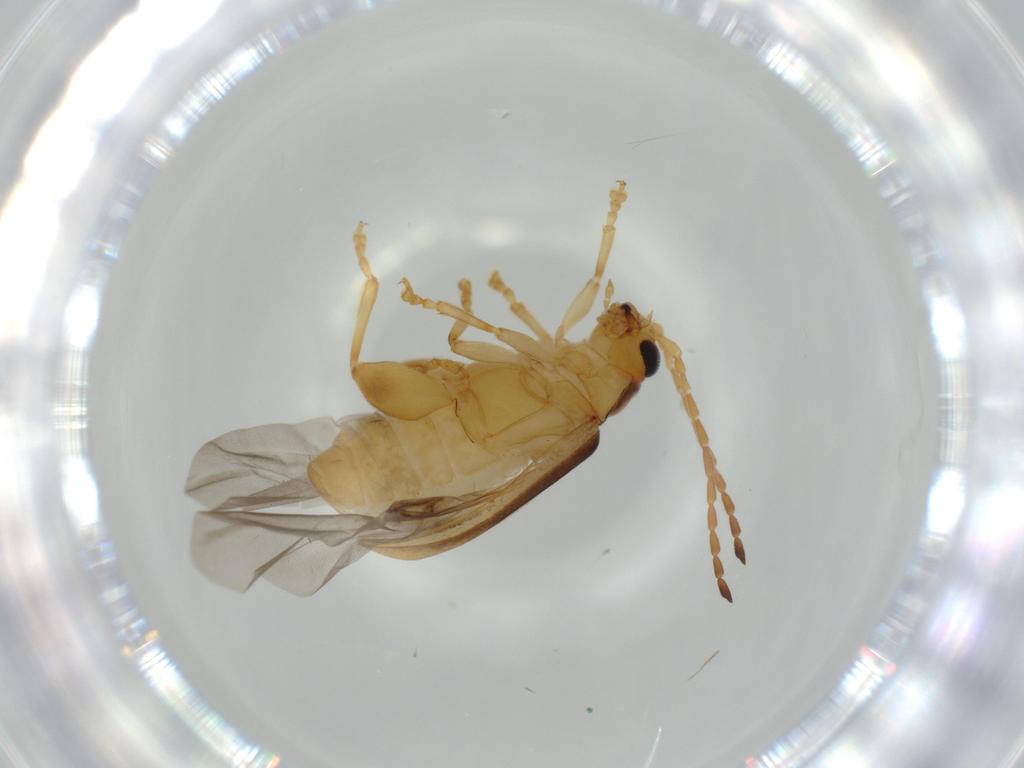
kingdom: Animalia
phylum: Arthropoda
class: Insecta
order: Coleoptera
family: Chrysomelidae
